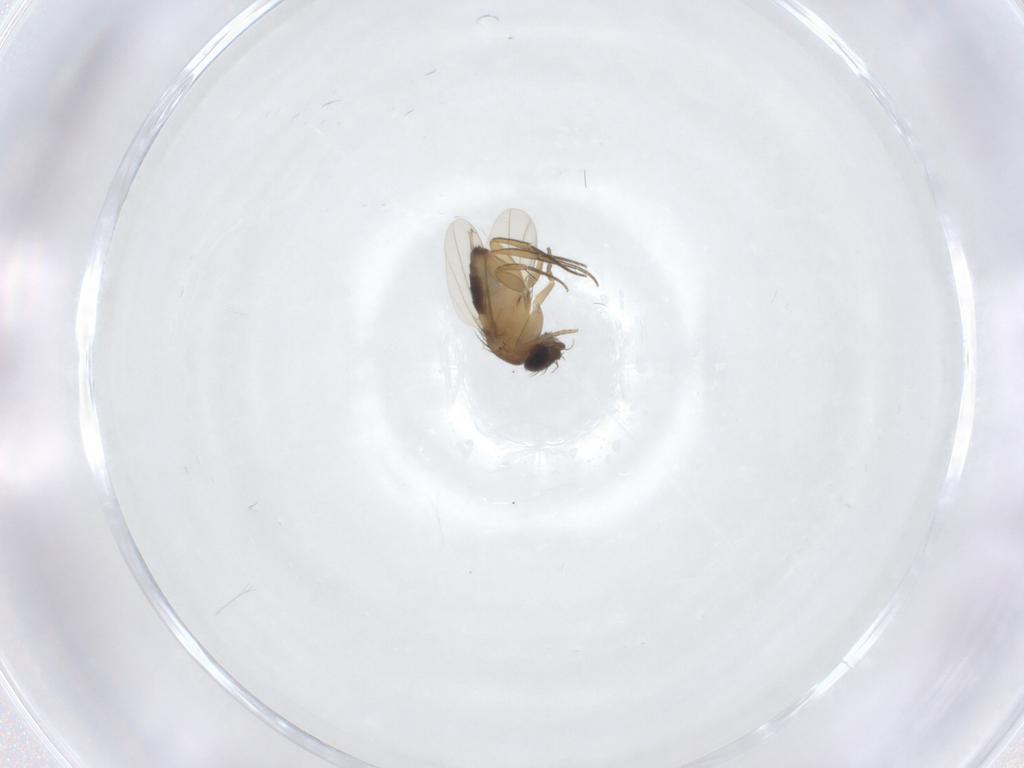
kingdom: Animalia
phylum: Arthropoda
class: Insecta
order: Diptera
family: Phoridae
